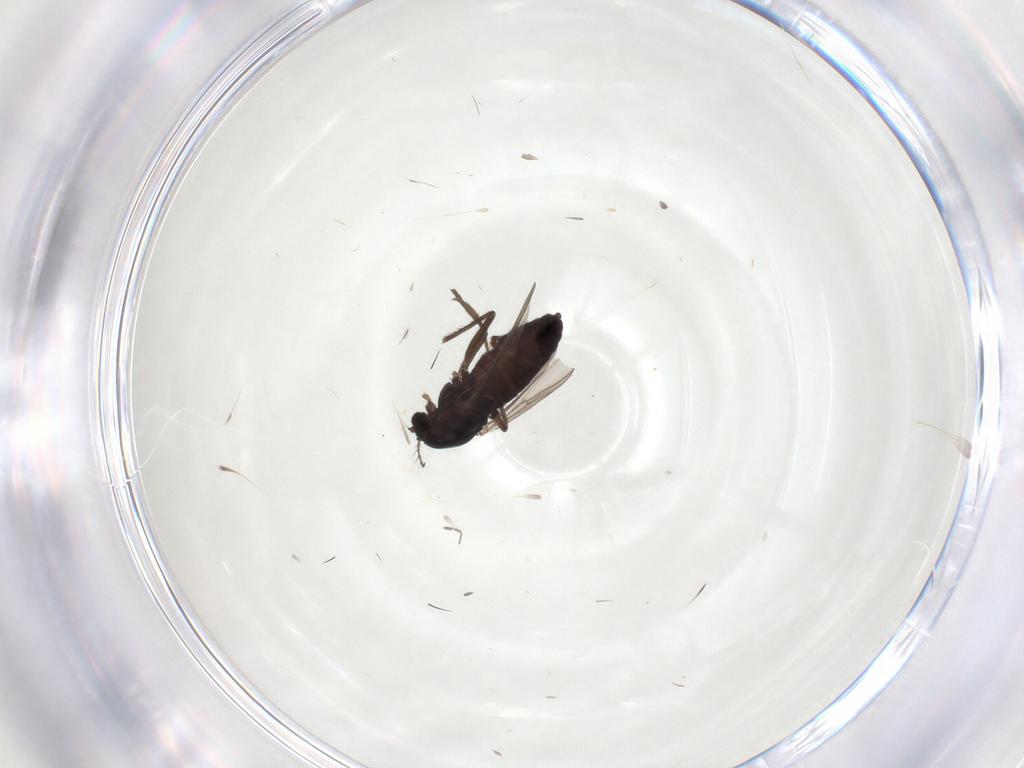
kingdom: Animalia
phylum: Arthropoda
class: Insecta
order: Diptera
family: Chironomidae
